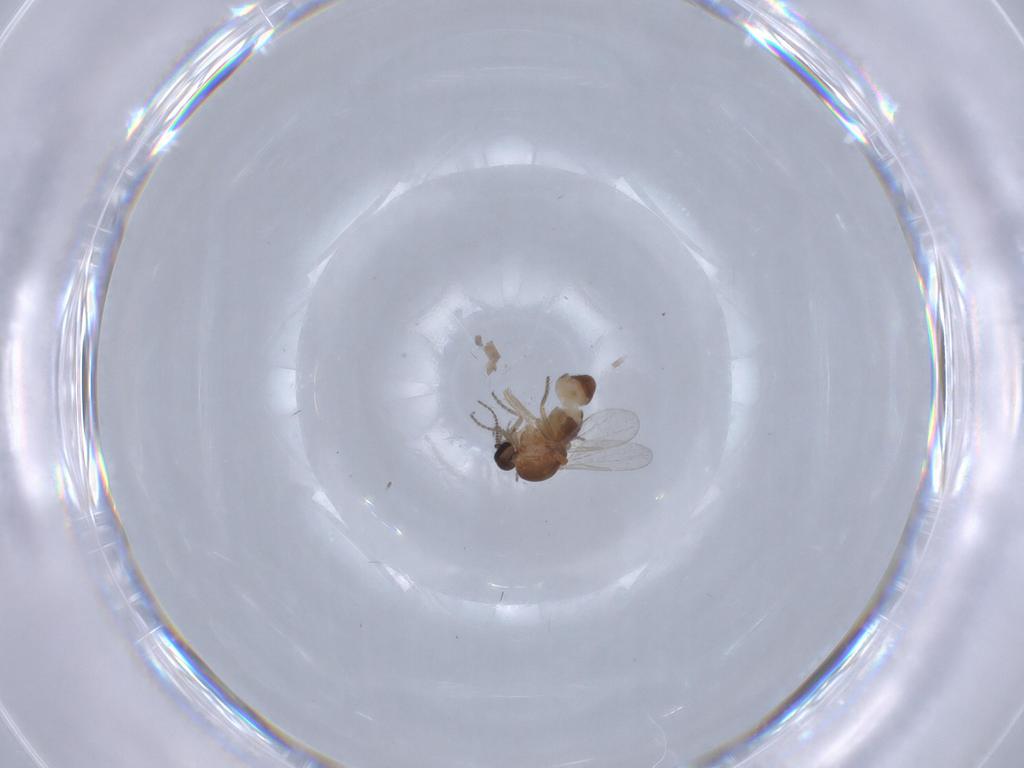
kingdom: Animalia
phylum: Arthropoda
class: Insecta
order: Diptera
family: Ceratopogonidae
